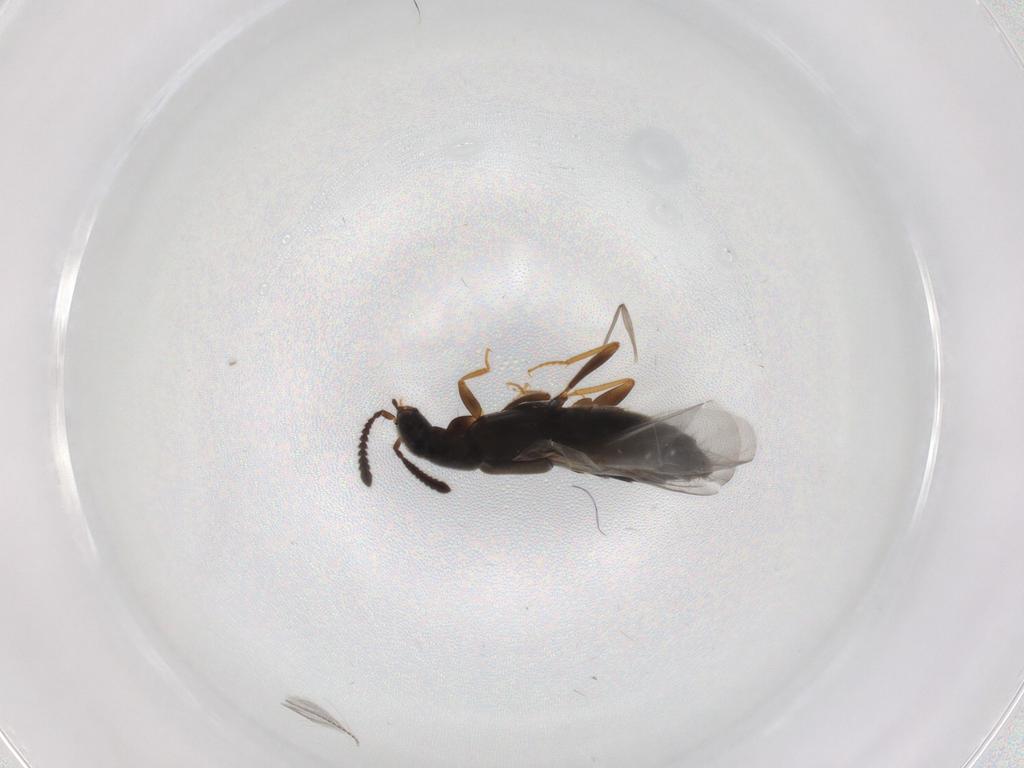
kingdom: Animalia
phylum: Arthropoda
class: Insecta
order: Coleoptera
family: Staphylinidae
